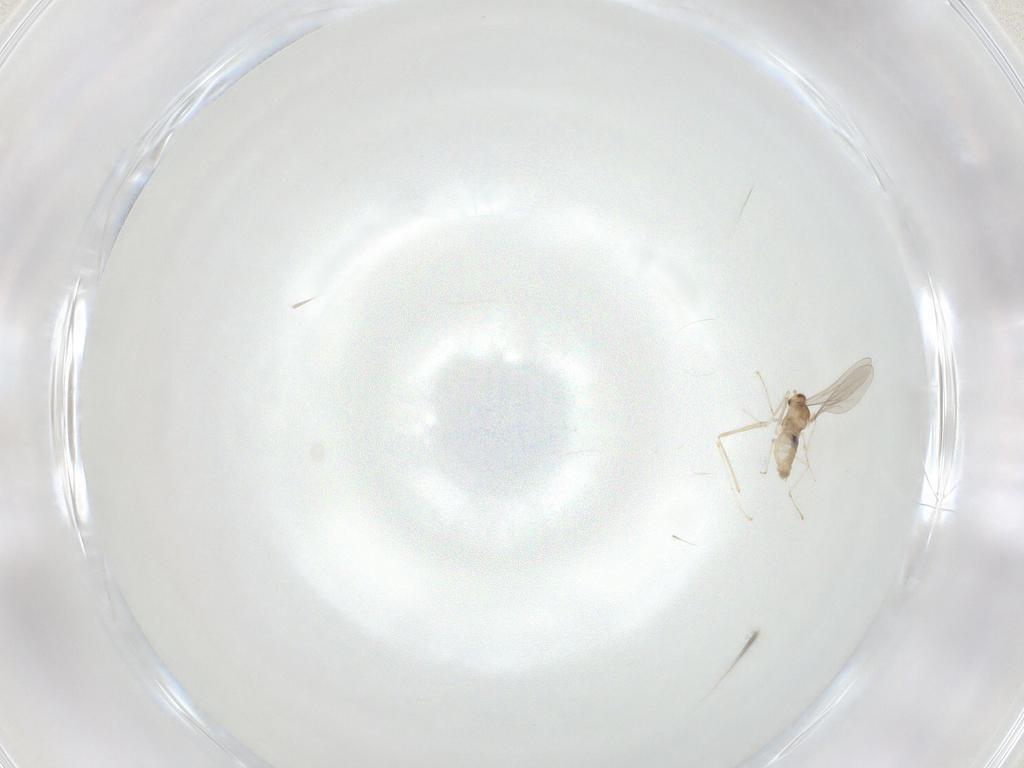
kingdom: Animalia
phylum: Arthropoda
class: Insecta
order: Diptera
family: Cecidomyiidae
